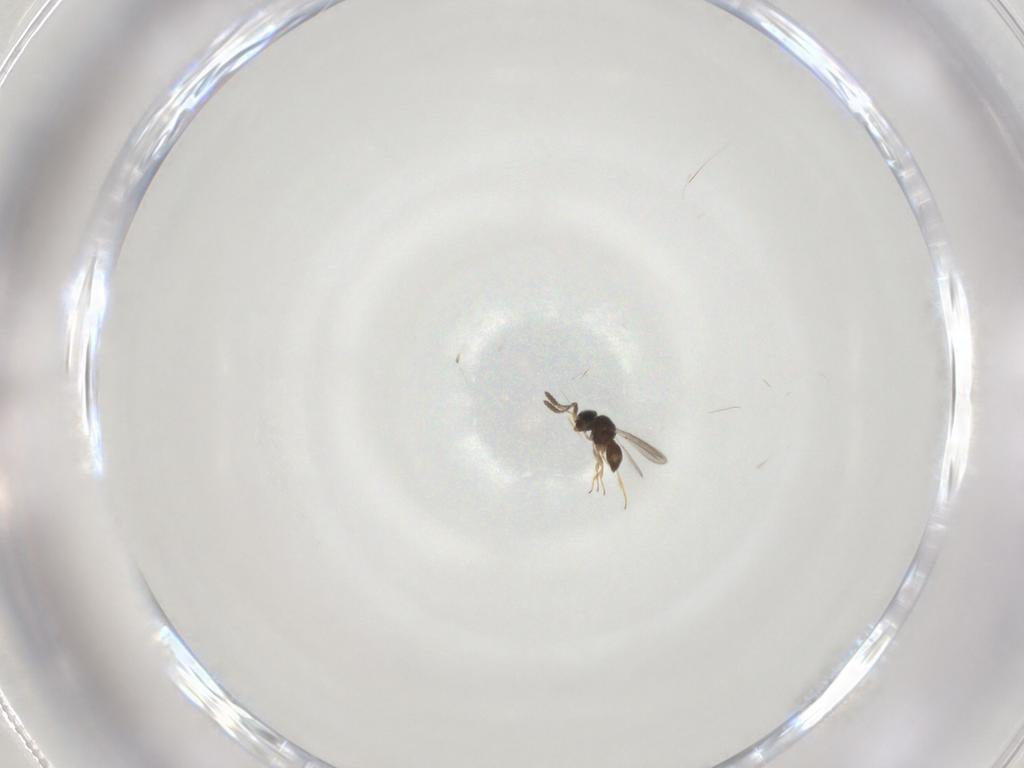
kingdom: Animalia
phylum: Arthropoda
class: Insecta
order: Hymenoptera
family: Scelionidae
